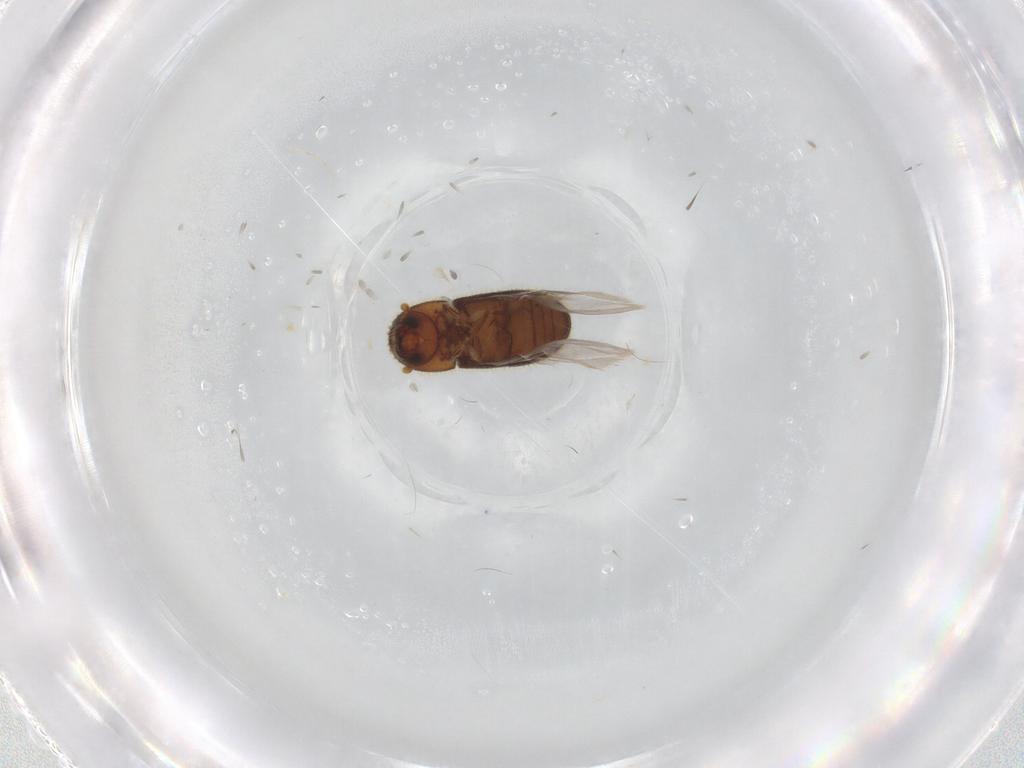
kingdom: Animalia
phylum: Arthropoda
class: Insecta
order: Coleoptera
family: Curculionidae
